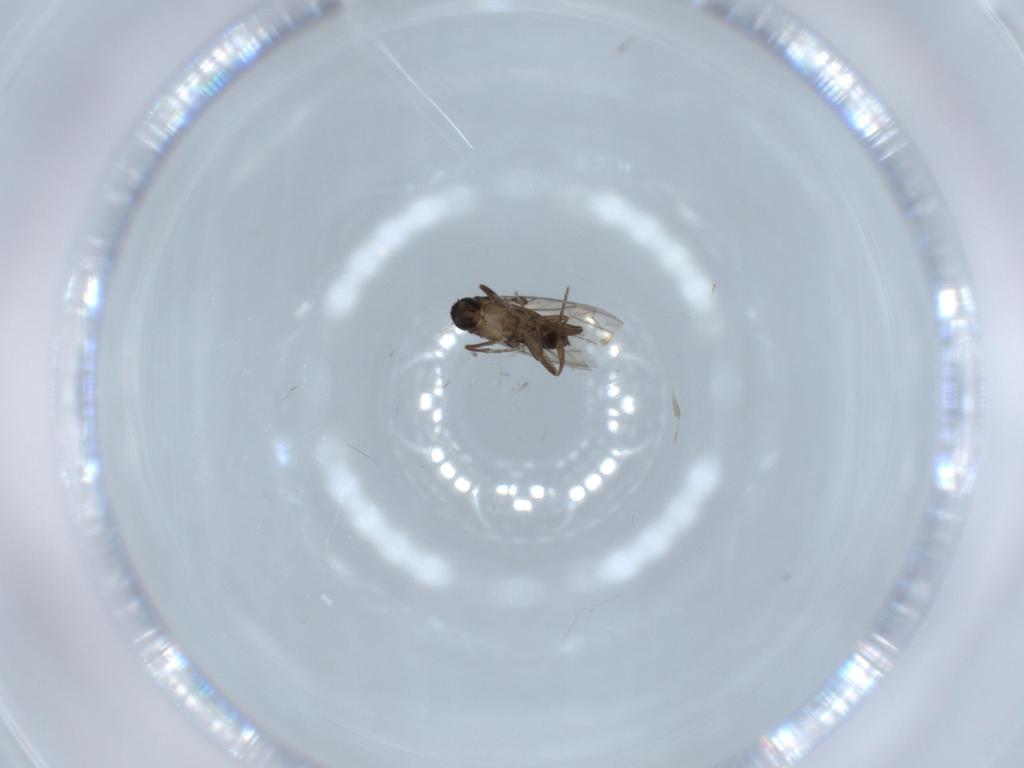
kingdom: Animalia
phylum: Arthropoda
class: Insecta
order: Diptera
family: Phoridae
